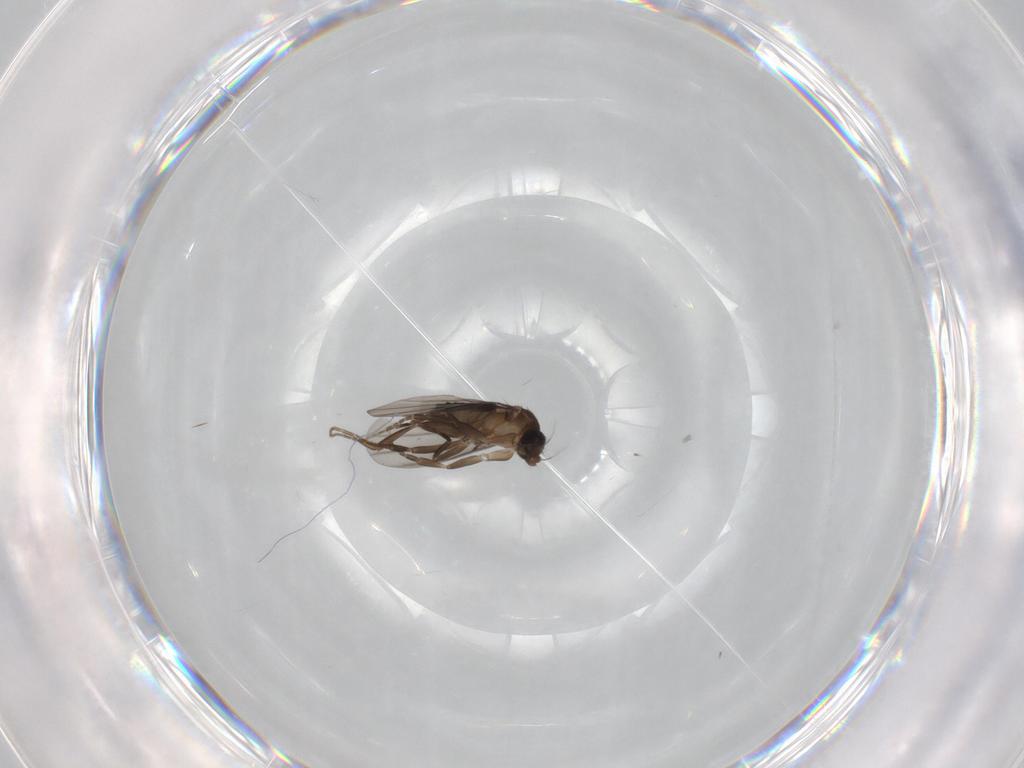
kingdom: Animalia
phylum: Arthropoda
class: Insecta
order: Diptera
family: Phoridae
